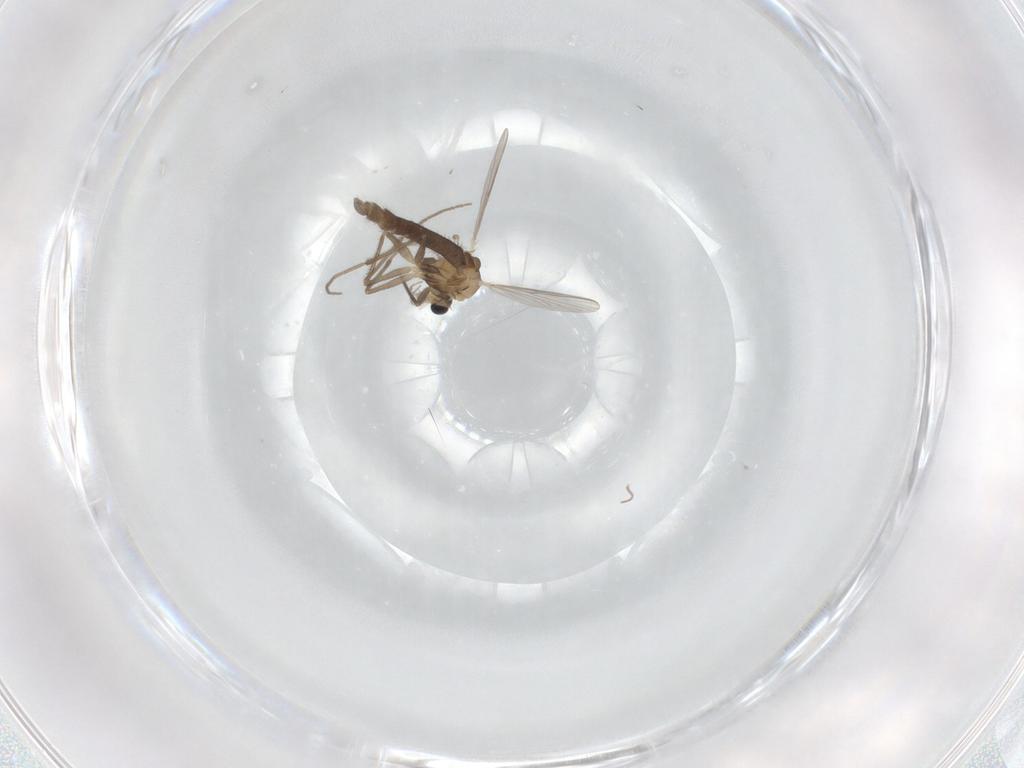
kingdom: Animalia
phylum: Arthropoda
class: Insecta
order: Diptera
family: Chironomidae
